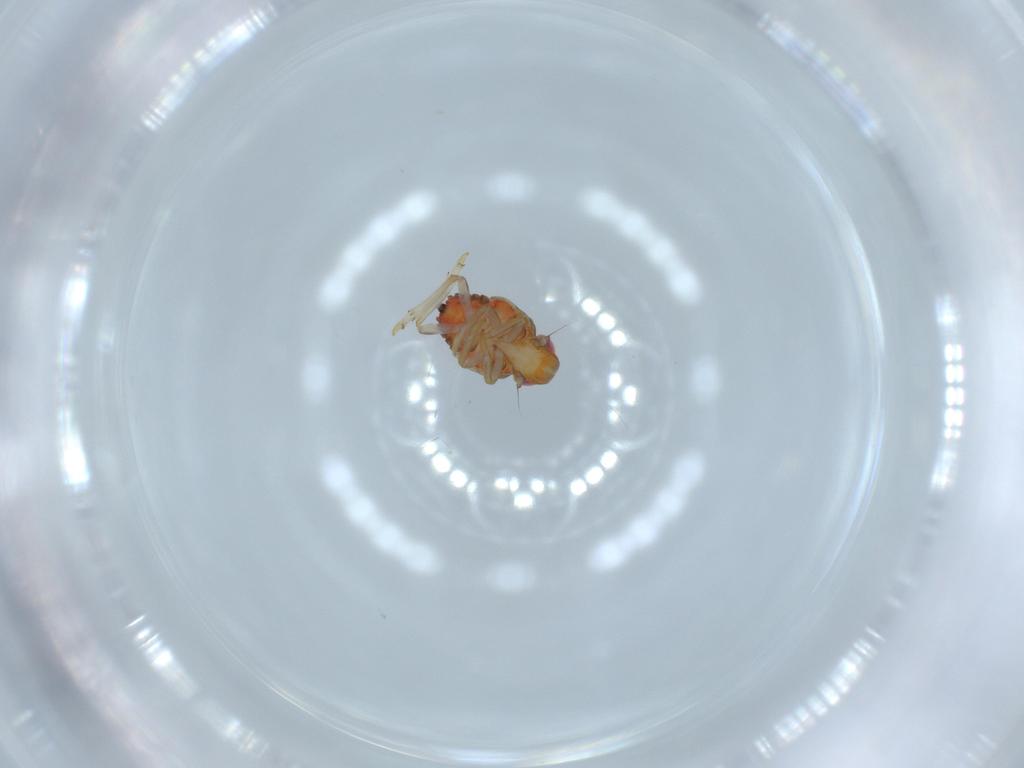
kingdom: Animalia
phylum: Arthropoda
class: Insecta
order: Hemiptera
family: Issidae
